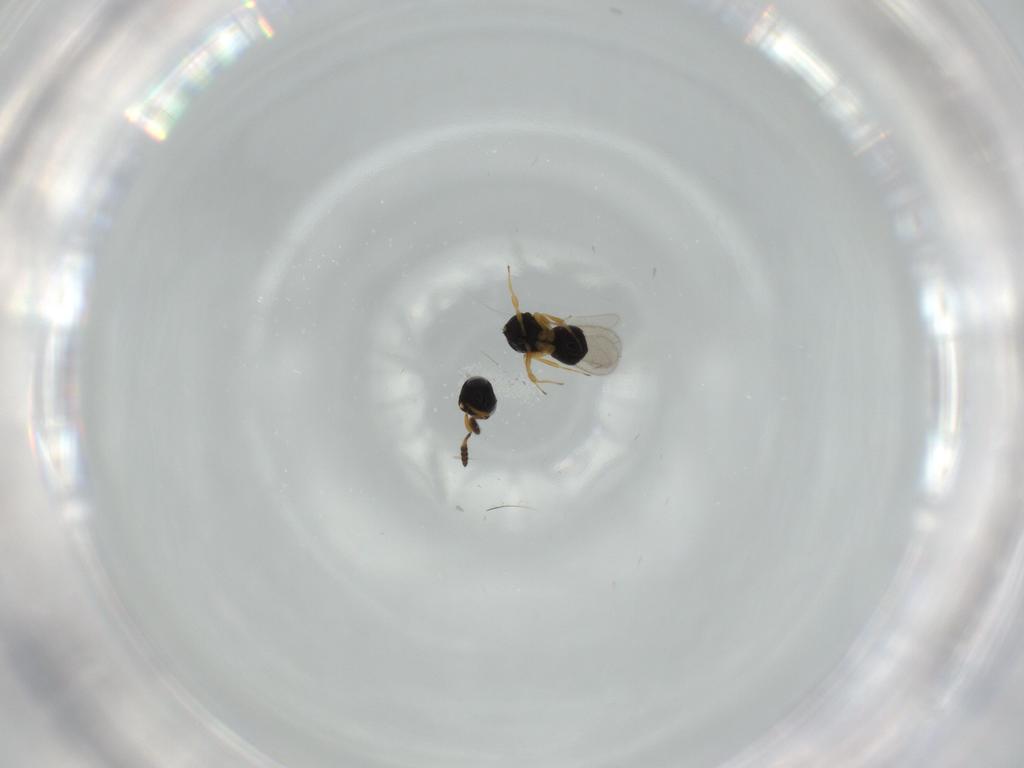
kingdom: Animalia
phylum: Arthropoda
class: Insecta
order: Hymenoptera
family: Scelionidae
